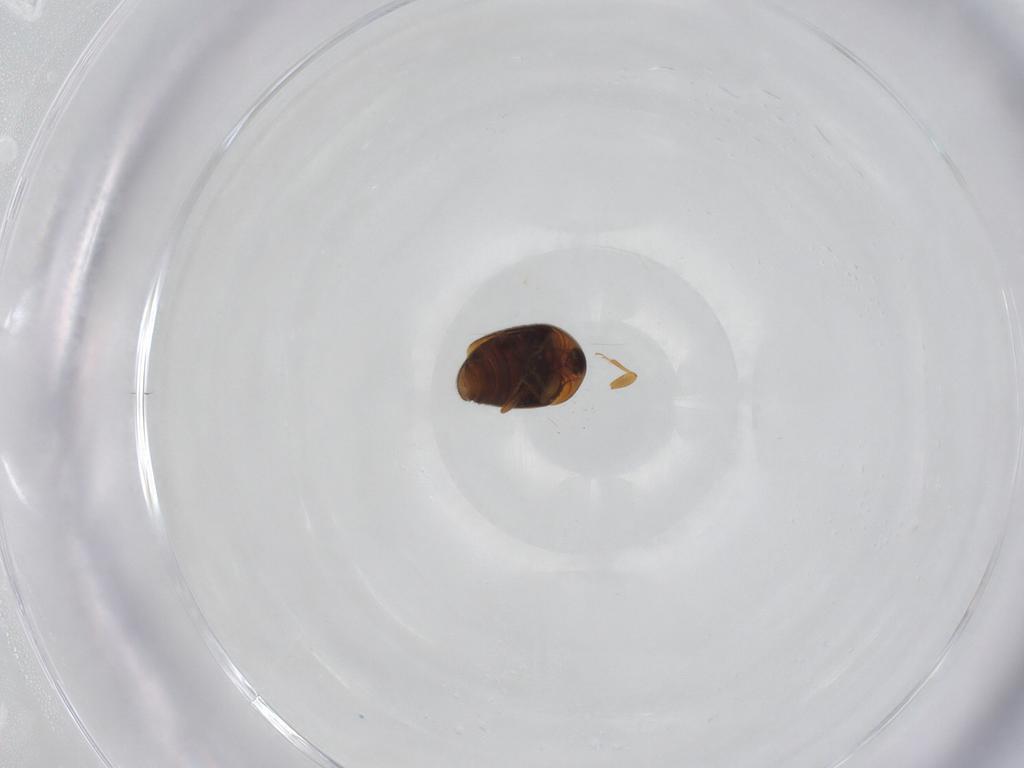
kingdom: Animalia
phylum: Arthropoda
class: Insecta
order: Coleoptera
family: Corylophidae
